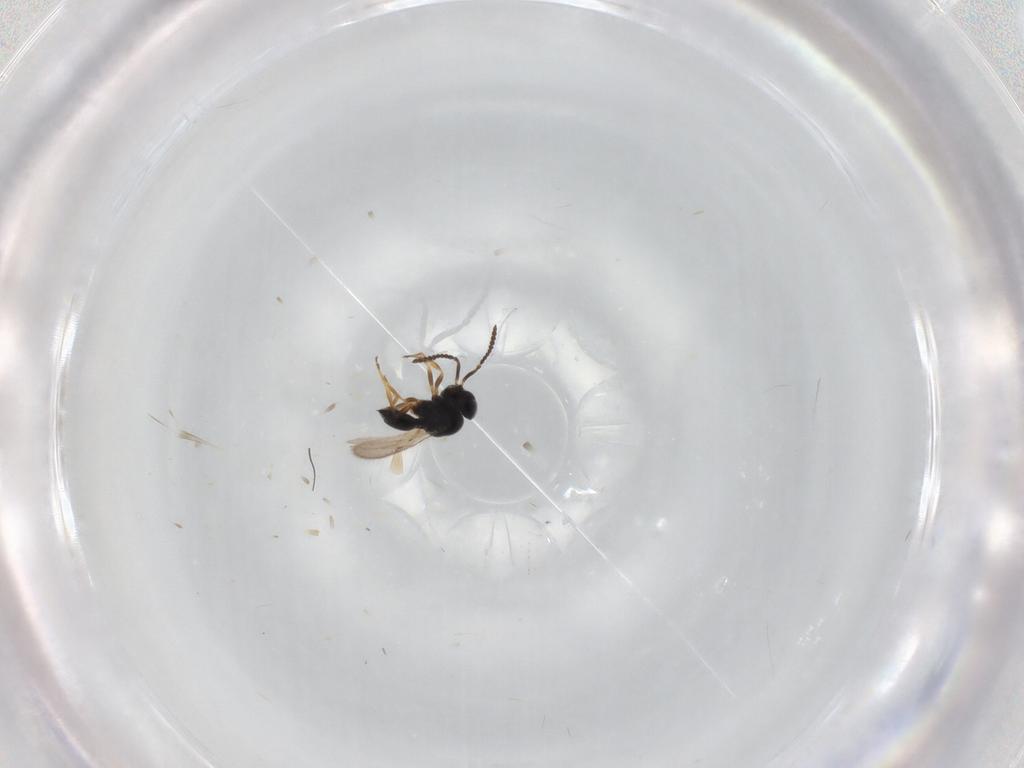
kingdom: Animalia
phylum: Arthropoda
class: Insecta
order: Hymenoptera
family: Scelionidae
